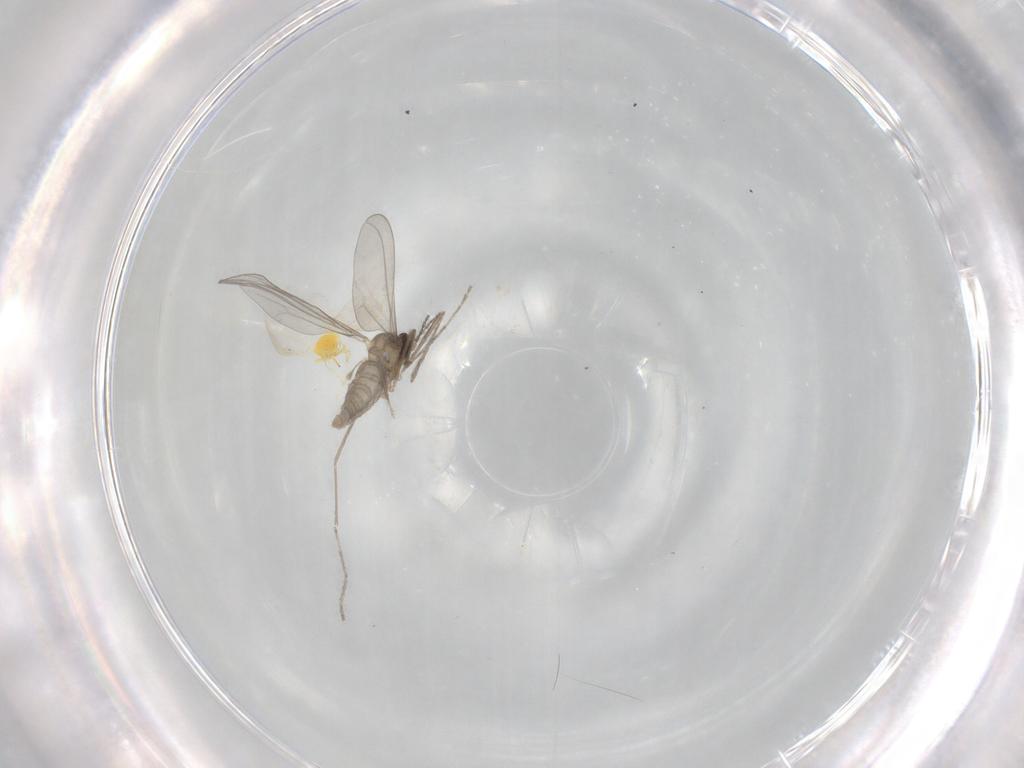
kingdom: Animalia
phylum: Arthropoda
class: Insecta
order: Diptera
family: Cecidomyiidae
